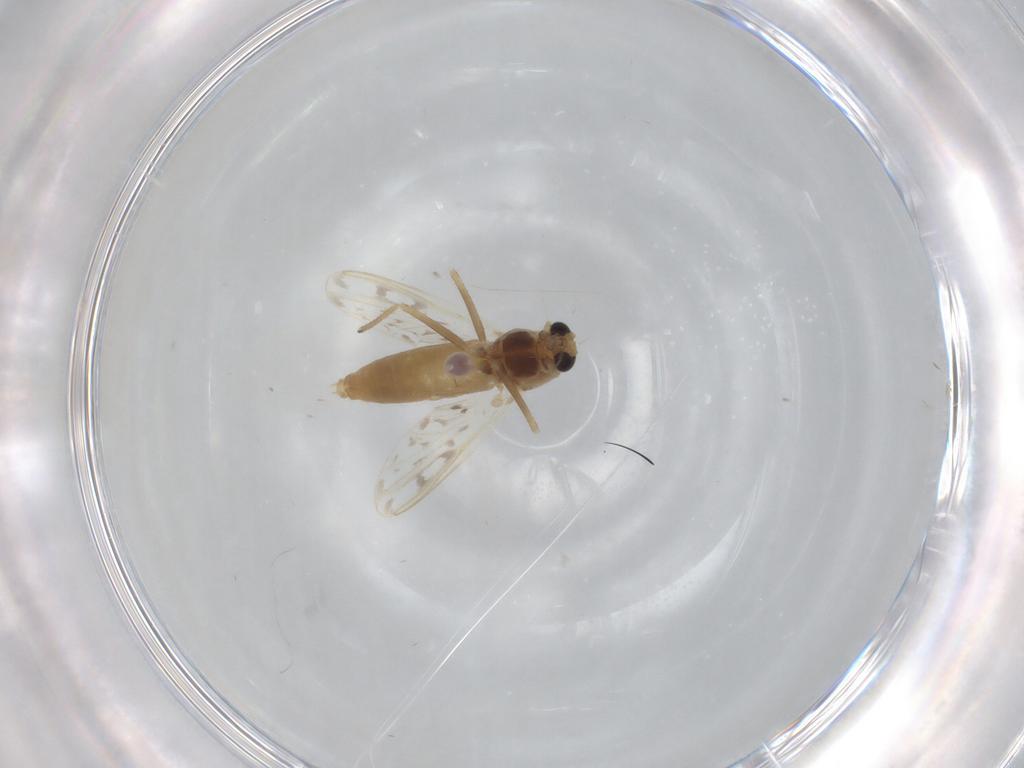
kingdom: Animalia
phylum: Arthropoda
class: Insecta
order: Diptera
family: Chironomidae
